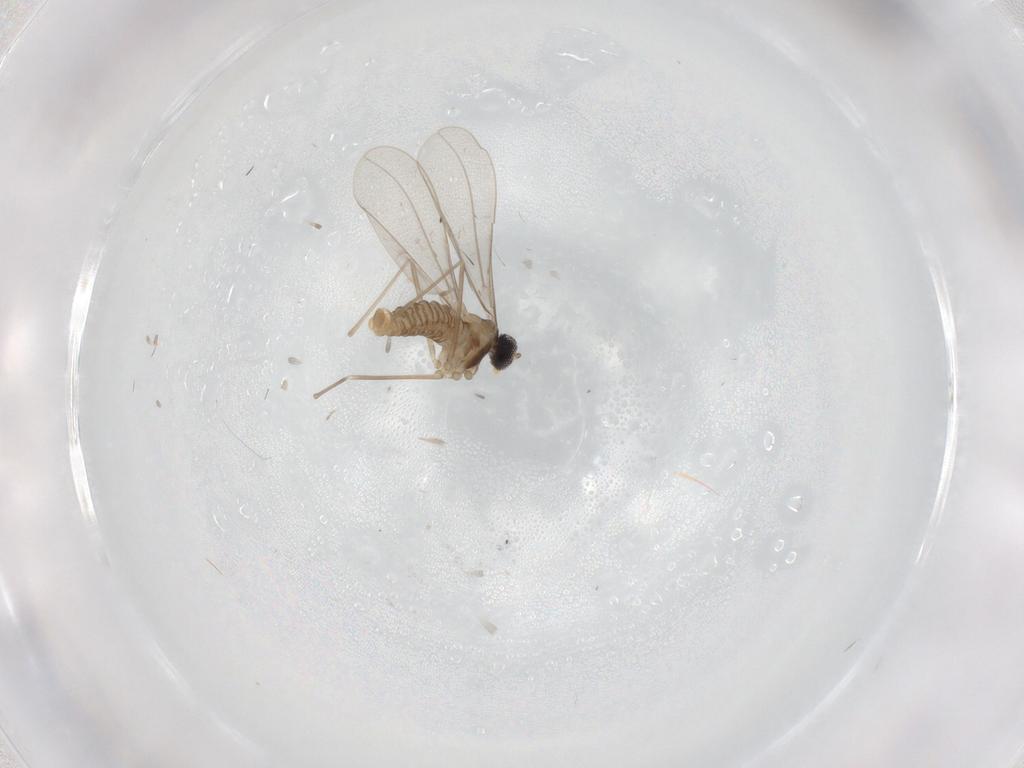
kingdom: Animalia
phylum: Arthropoda
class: Insecta
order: Diptera
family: Cecidomyiidae
